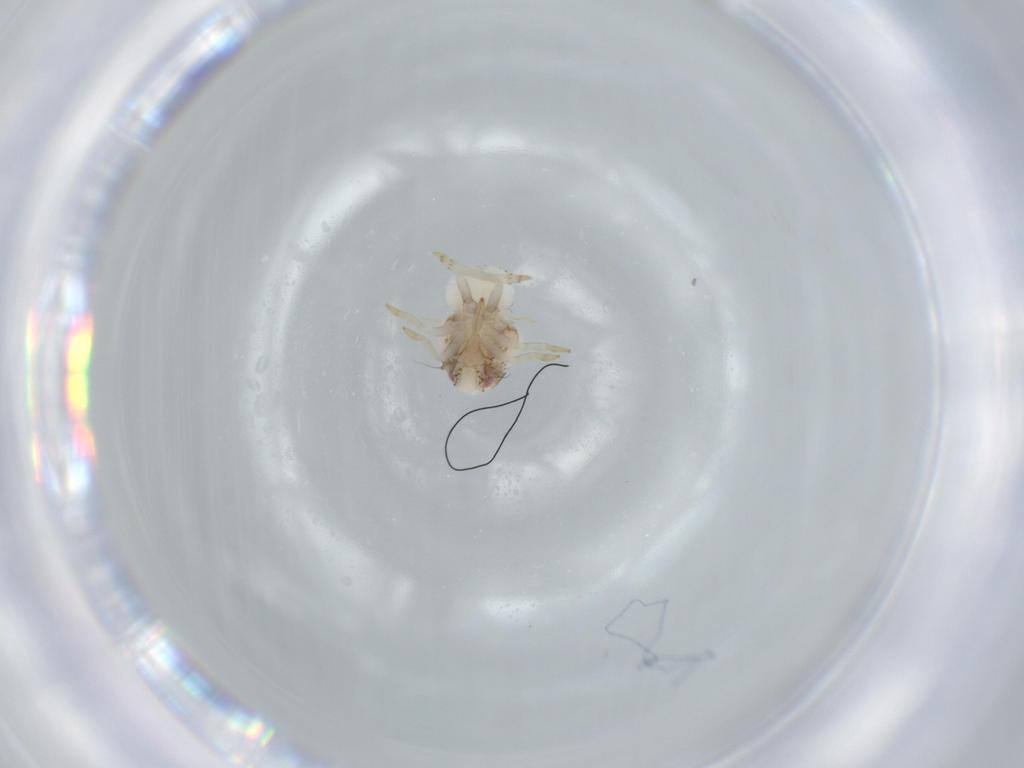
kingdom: Animalia
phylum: Arthropoda
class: Insecta
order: Hemiptera
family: Acanaloniidae
